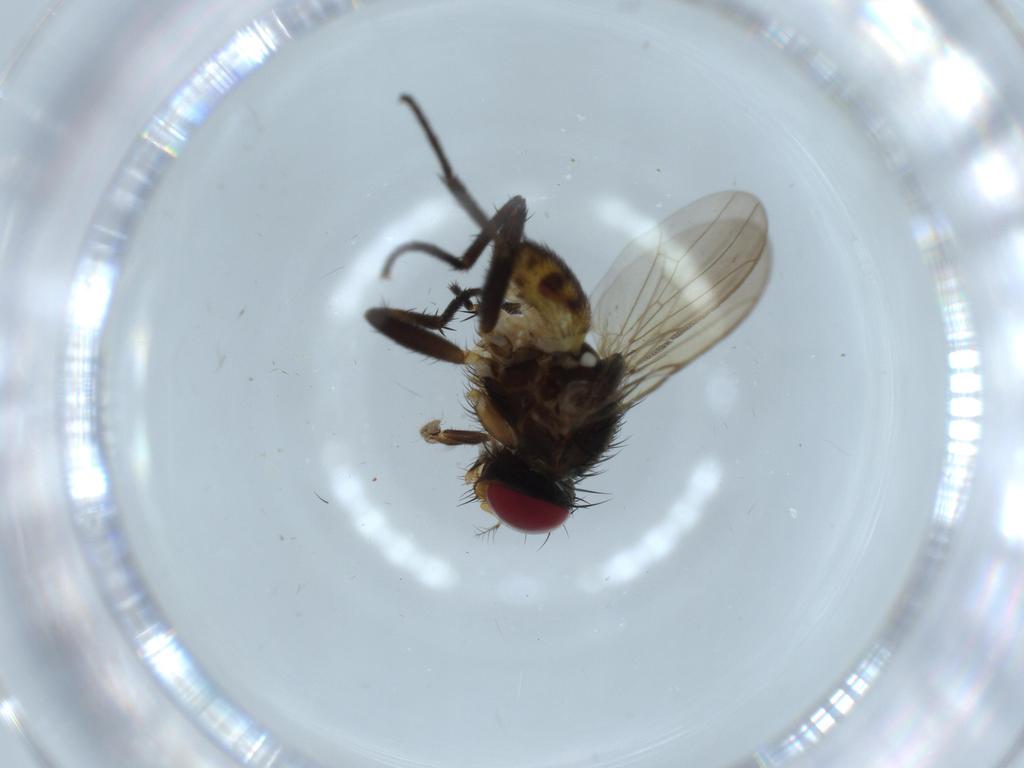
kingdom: Animalia
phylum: Arthropoda
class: Insecta
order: Diptera
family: Anthomyiidae
